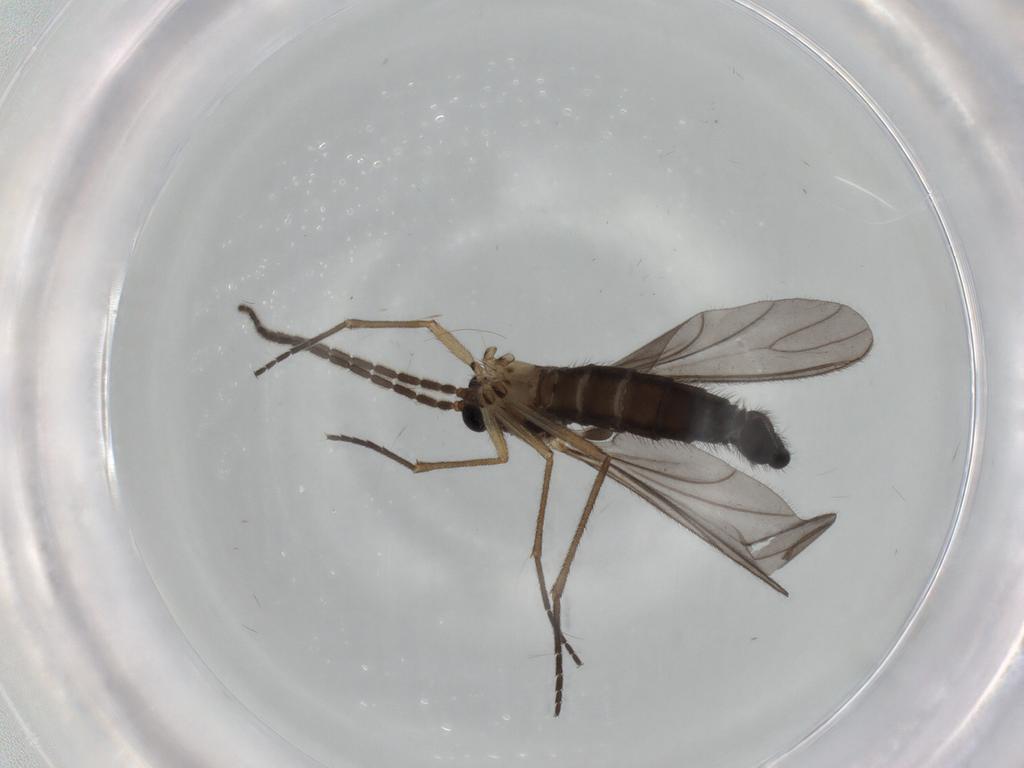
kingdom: Animalia
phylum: Arthropoda
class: Insecta
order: Diptera
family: Sciaridae
